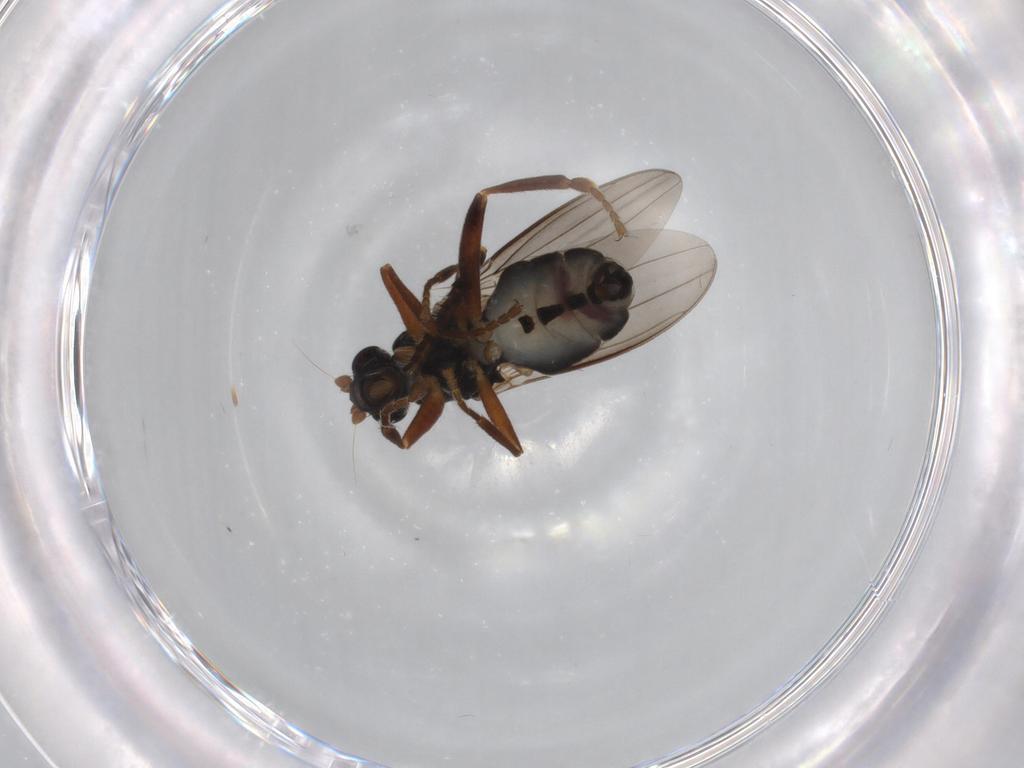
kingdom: Animalia
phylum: Arthropoda
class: Insecta
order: Diptera
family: Sphaeroceridae
